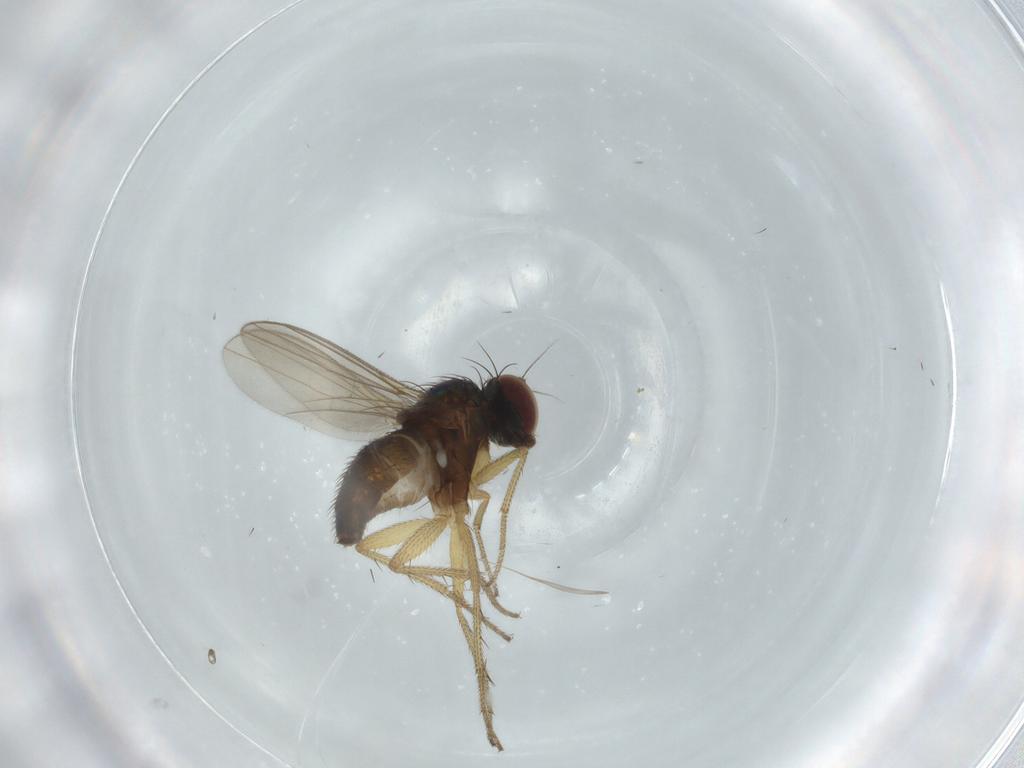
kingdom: Animalia
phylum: Arthropoda
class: Insecta
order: Diptera
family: Dolichopodidae
